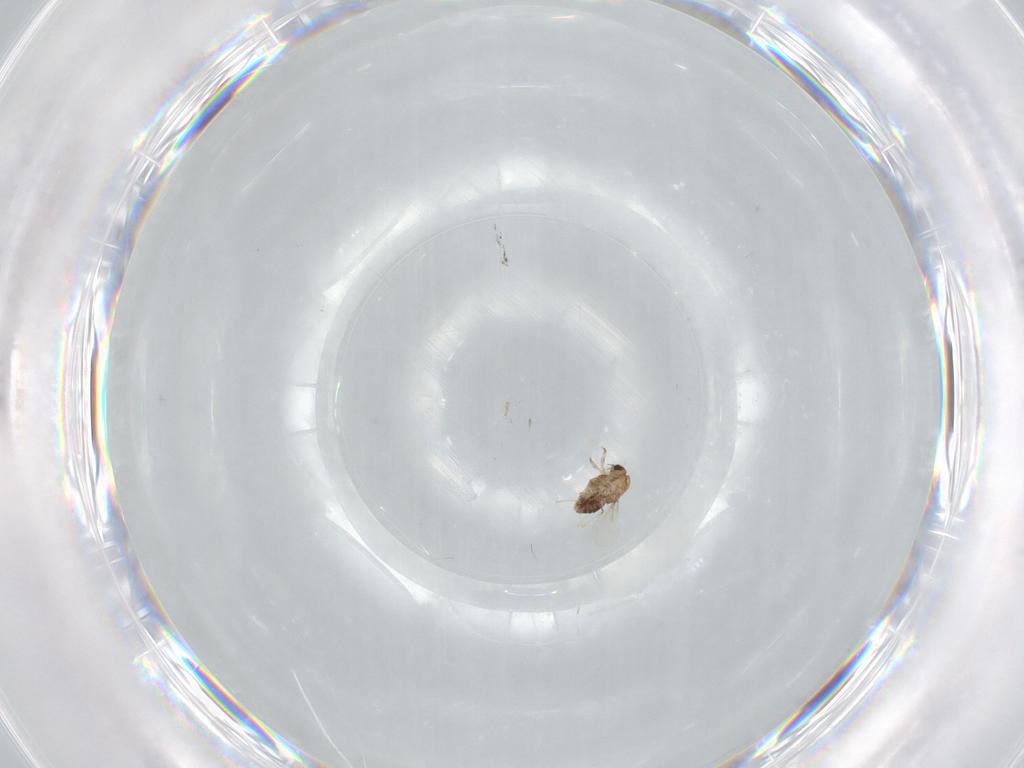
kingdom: Animalia
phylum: Arthropoda
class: Insecta
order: Diptera
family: Chironomidae
